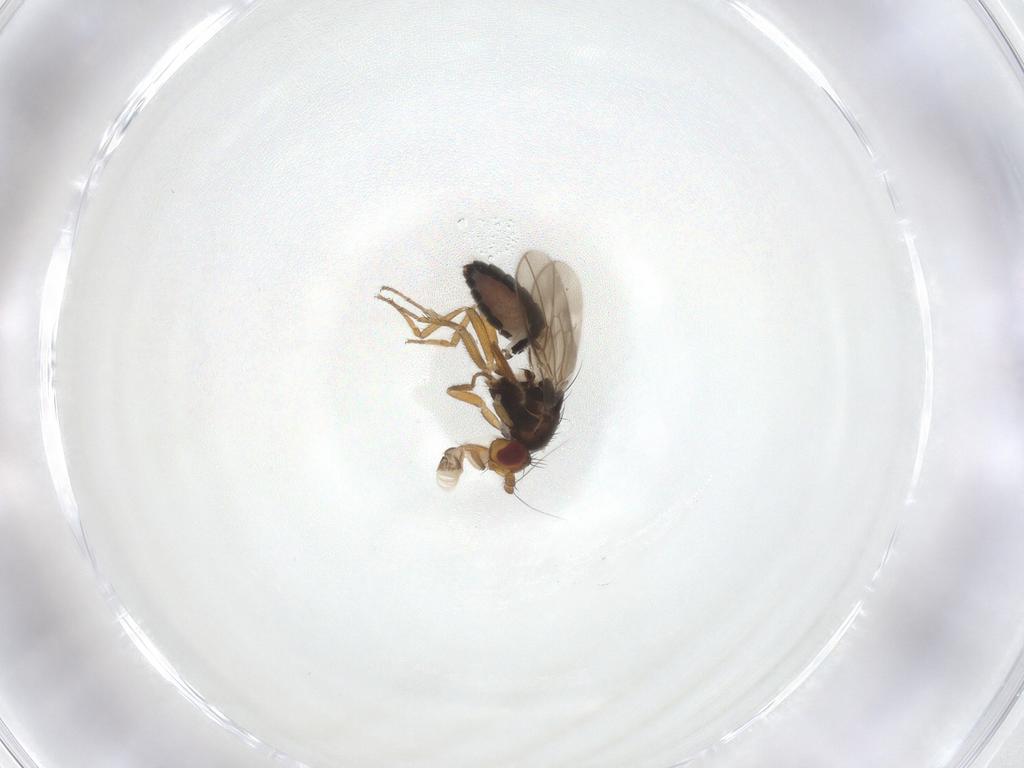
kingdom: Animalia
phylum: Arthropoda
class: Insecta
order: Diptera
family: Sphaeroceridae
